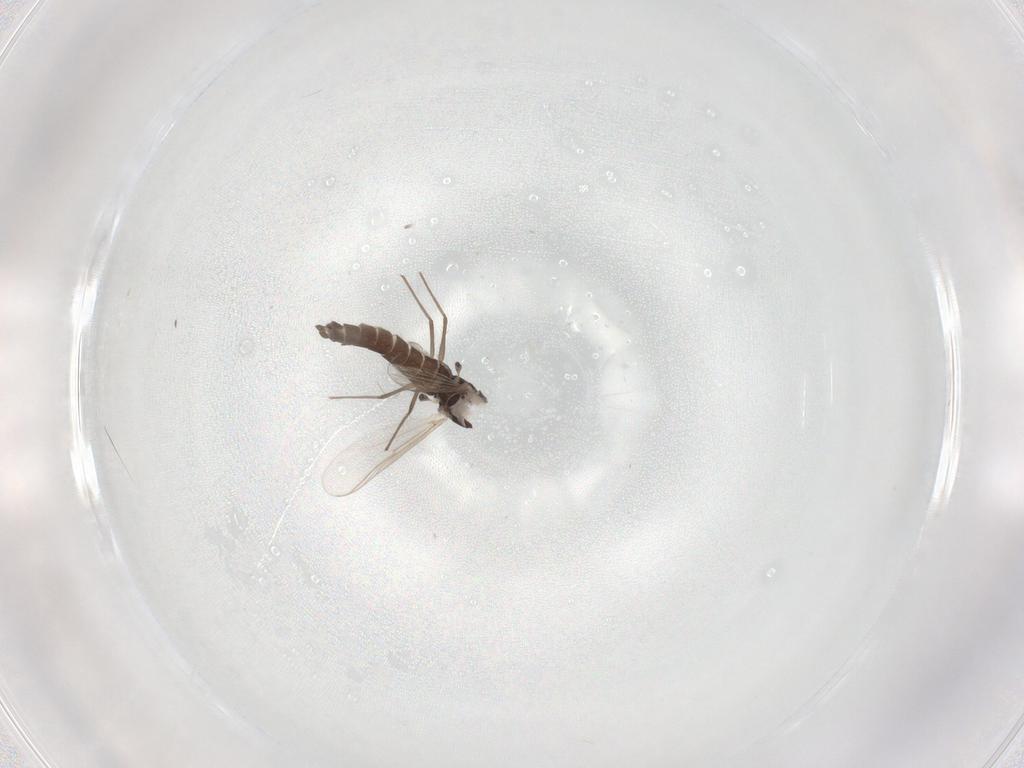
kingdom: Animalia
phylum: Arthropoda
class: Insecta
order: Diptera
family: Chironomidae
